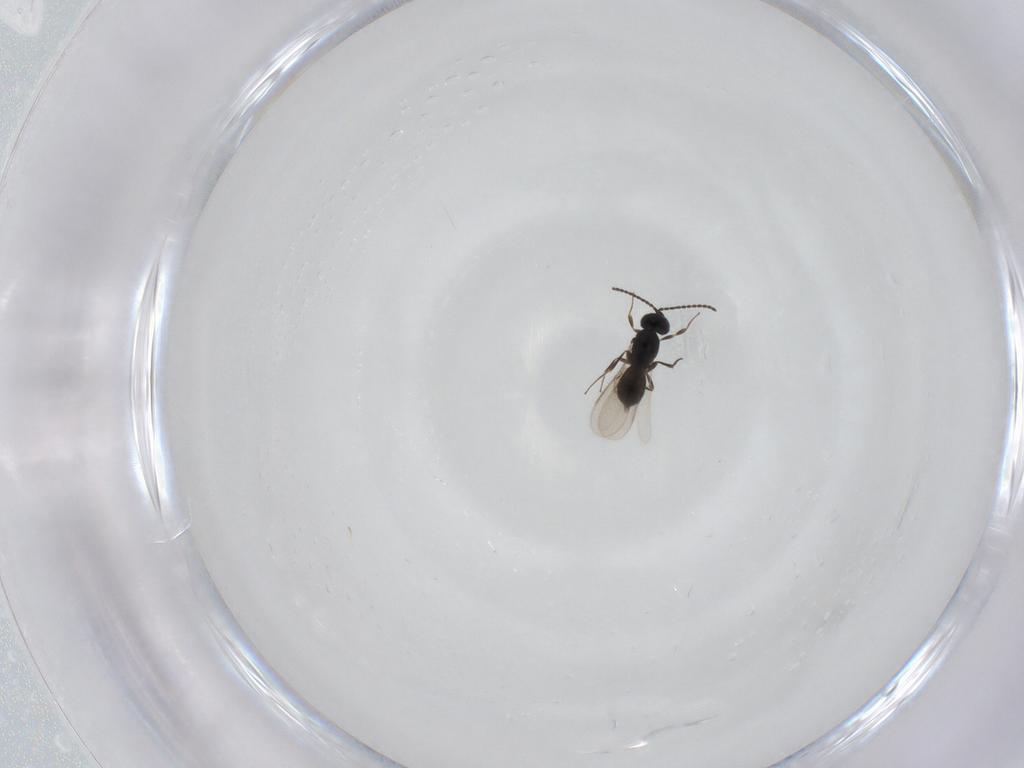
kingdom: Animalia
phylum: Arthropoda
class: Insecta
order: Hymenoptera
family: Scelionidae
